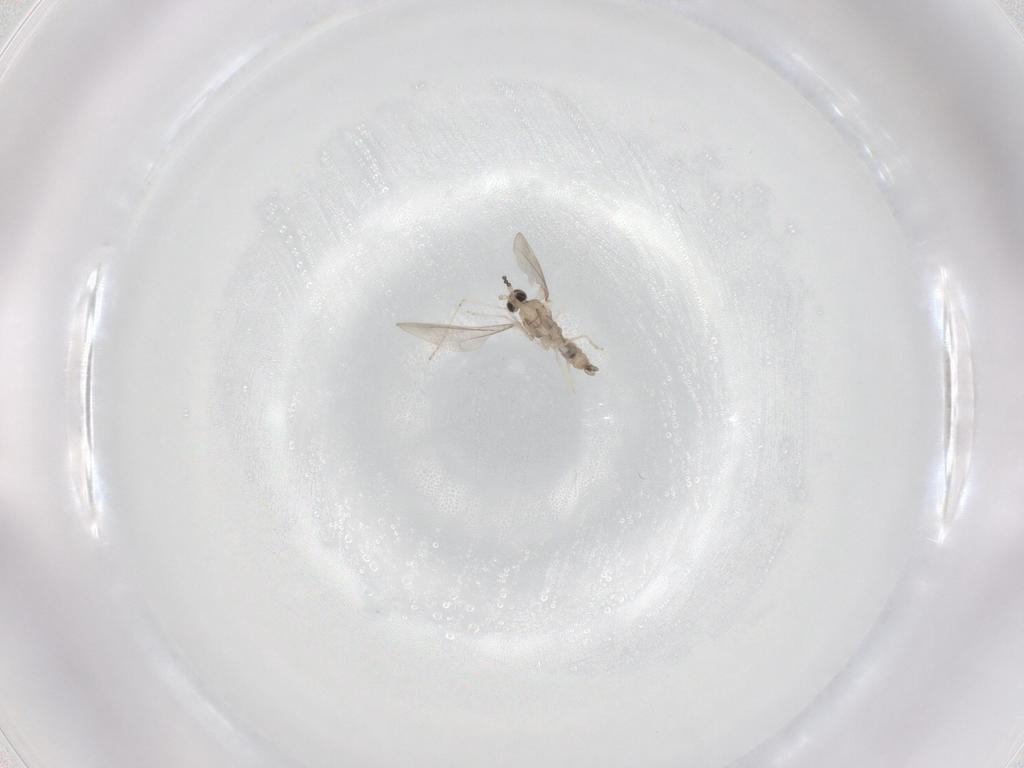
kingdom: Animalia
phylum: Arthropoda
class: Insecta
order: Diptera
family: Cecidomyiidae
